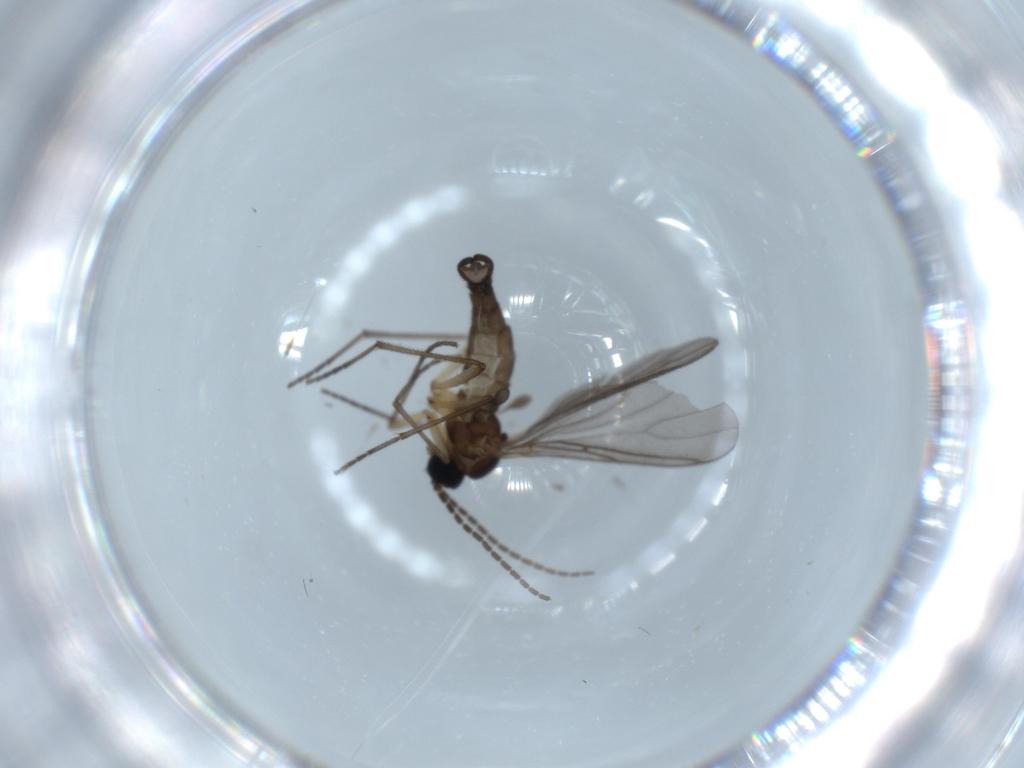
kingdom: Animalia
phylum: Arthropoda
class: Insecta
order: Diptera
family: Sciaridae
